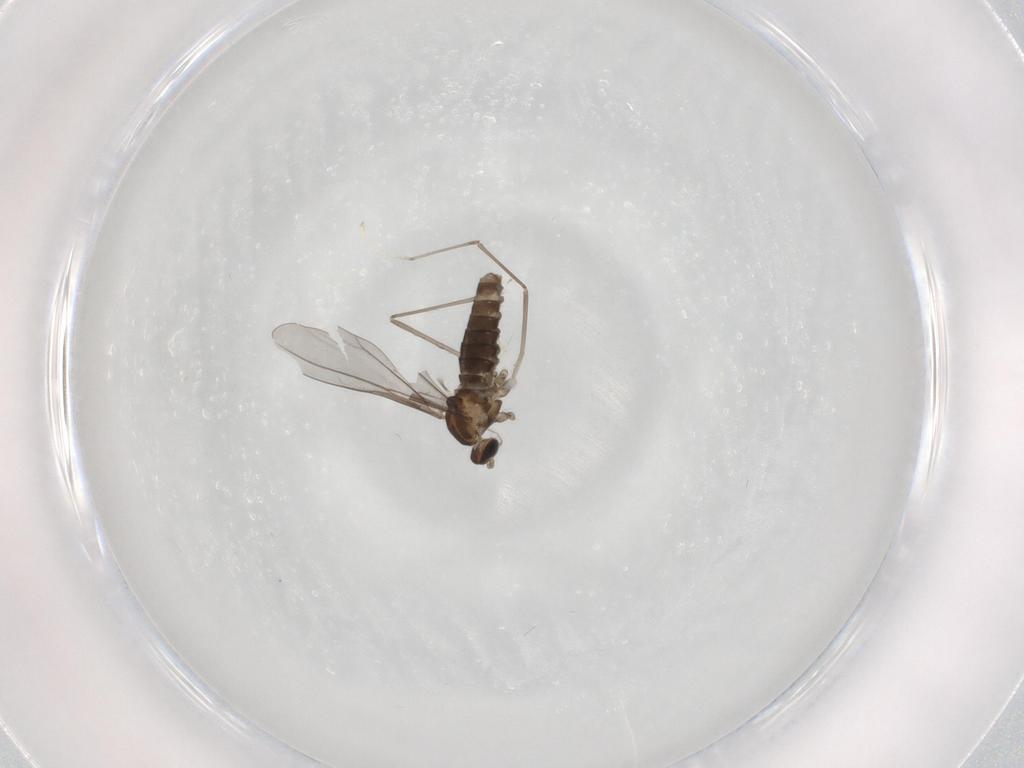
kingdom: Animalia
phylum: Arthropoda
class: Insecta
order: Diptera
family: Cecidomyiidae
